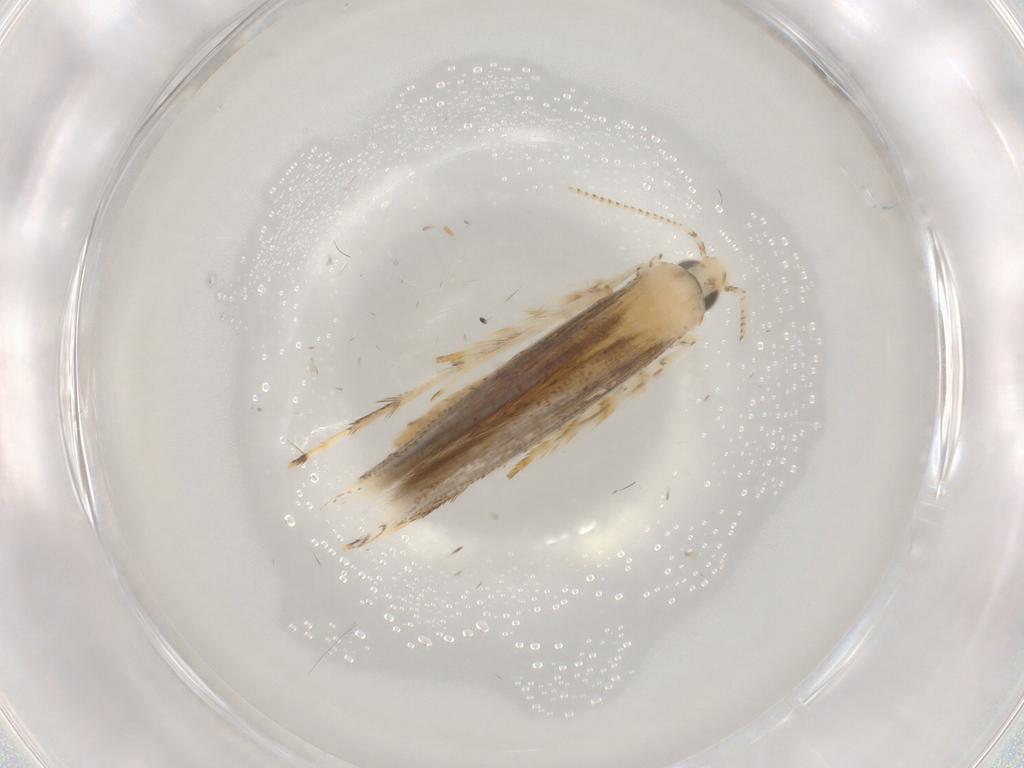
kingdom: Animalia
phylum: Arthropoda
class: Insecta
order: Lepidoptera
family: Gracillariidae
